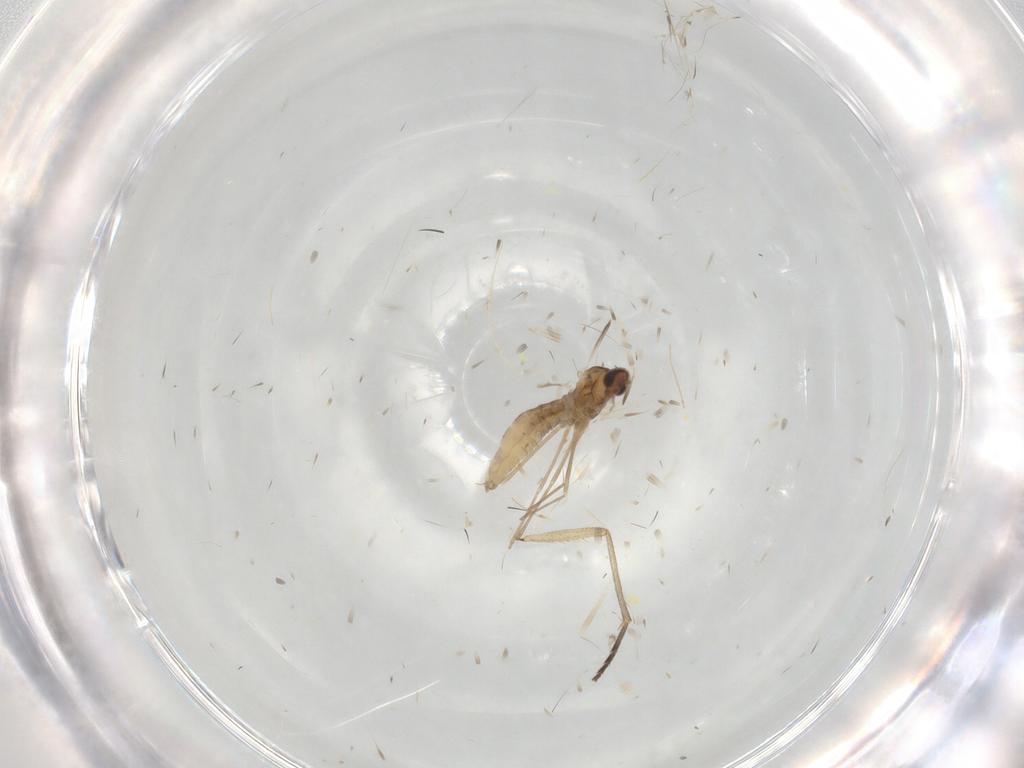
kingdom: Animalia
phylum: Arthropoda
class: Insecta
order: Diptera
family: Cecidomyiidae
